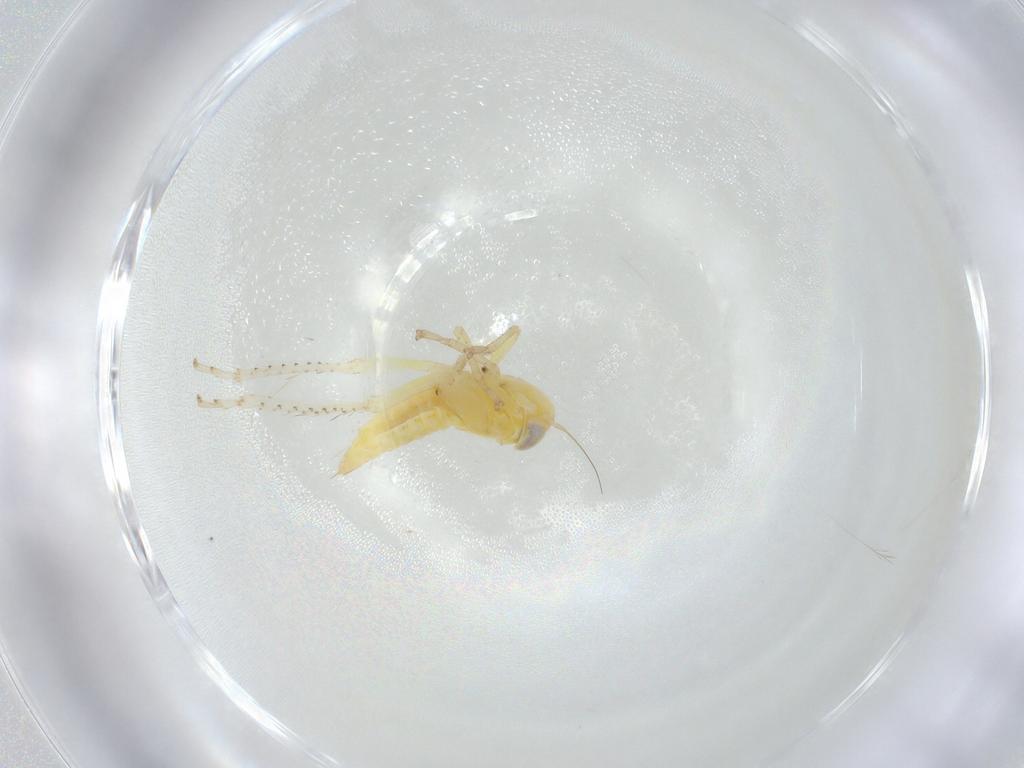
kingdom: Animalia
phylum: Arthropoda
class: Insecta
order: Hemiptera
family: Cicadellidae
